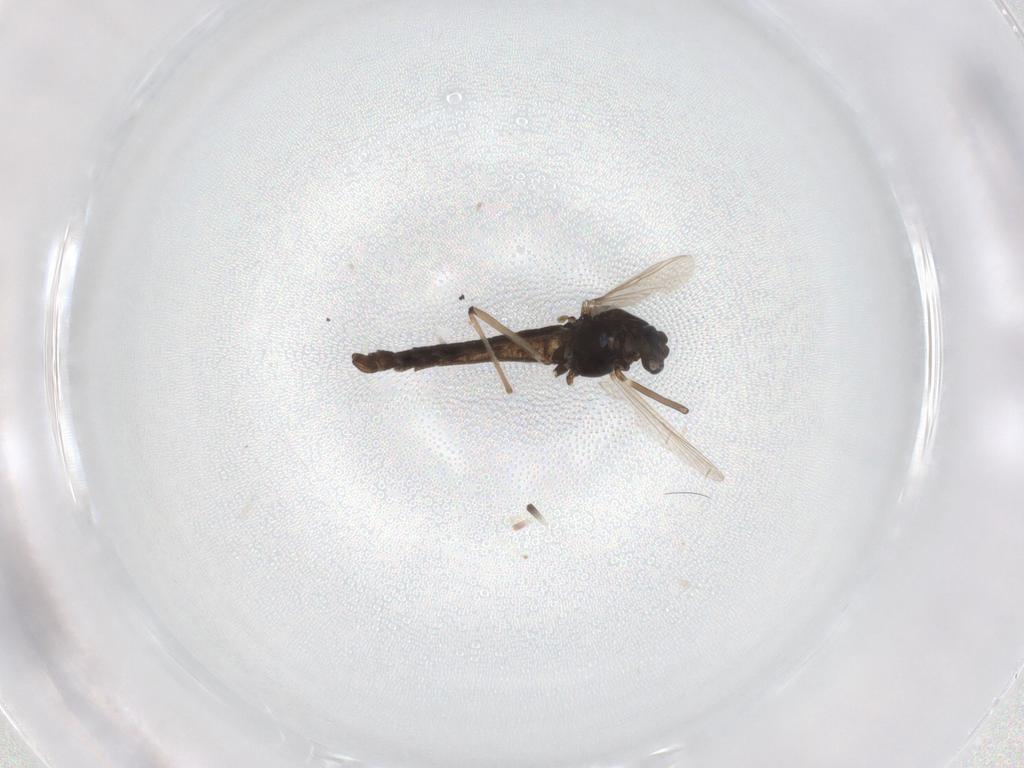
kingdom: Animalia
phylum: Arthropoda
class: Insecta
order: Diptera
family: Chironomidae
